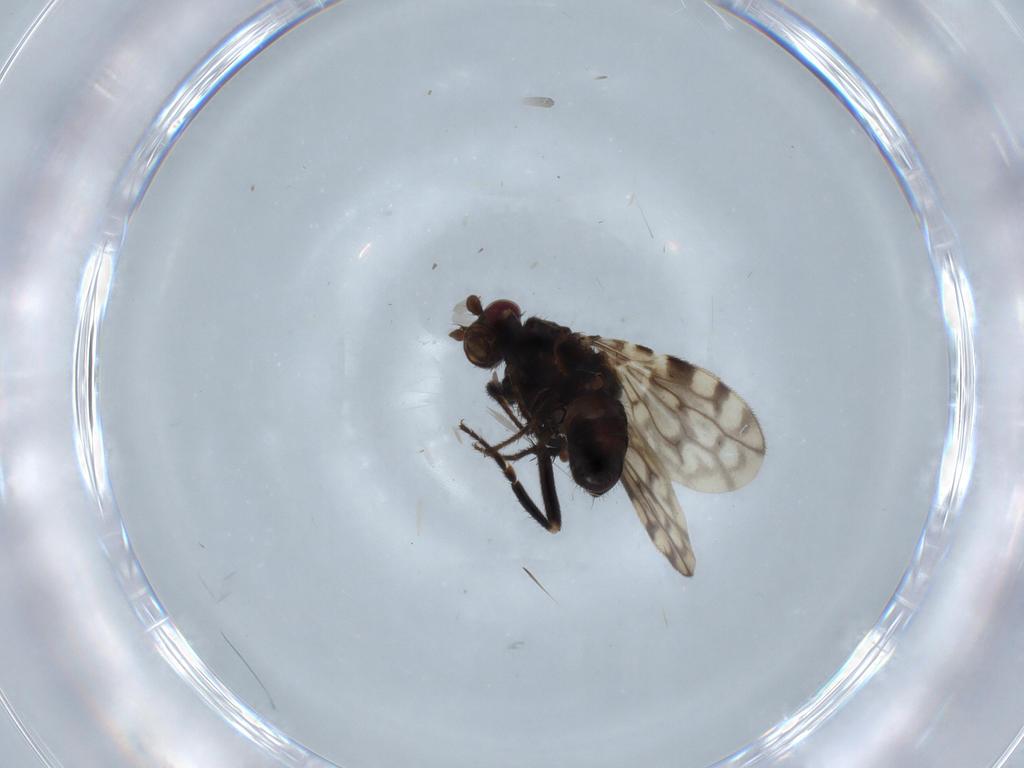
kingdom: Animalia
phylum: Arthropoda
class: Insecta
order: Diptera
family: Sphaeroceridae
